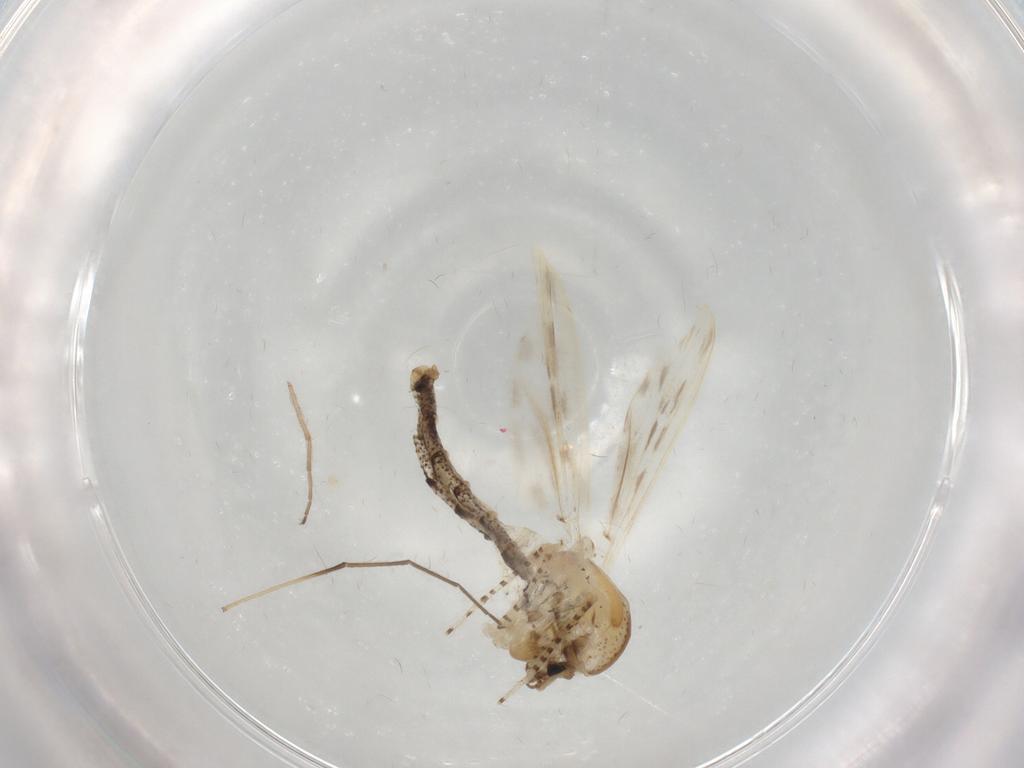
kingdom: Animalia
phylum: Arthropoda
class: Insecta
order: Diptera
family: Chaoboridae
